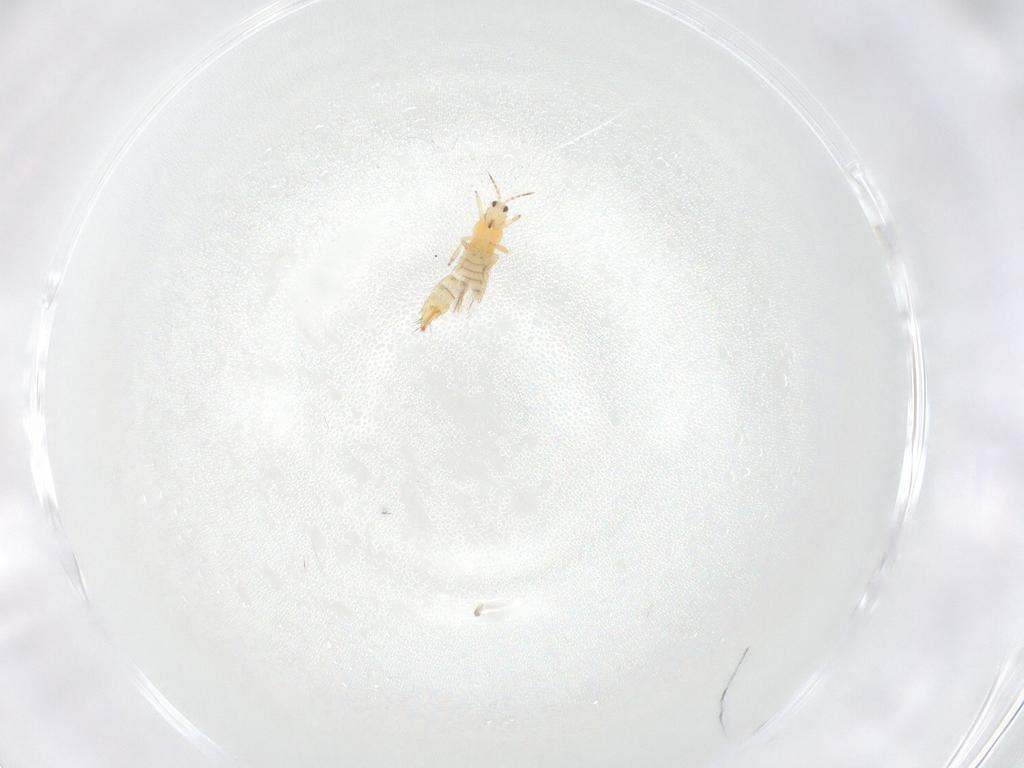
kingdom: Animalia
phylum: Arthropoda
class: Insecta
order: Thysanoptera
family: Thripidae
